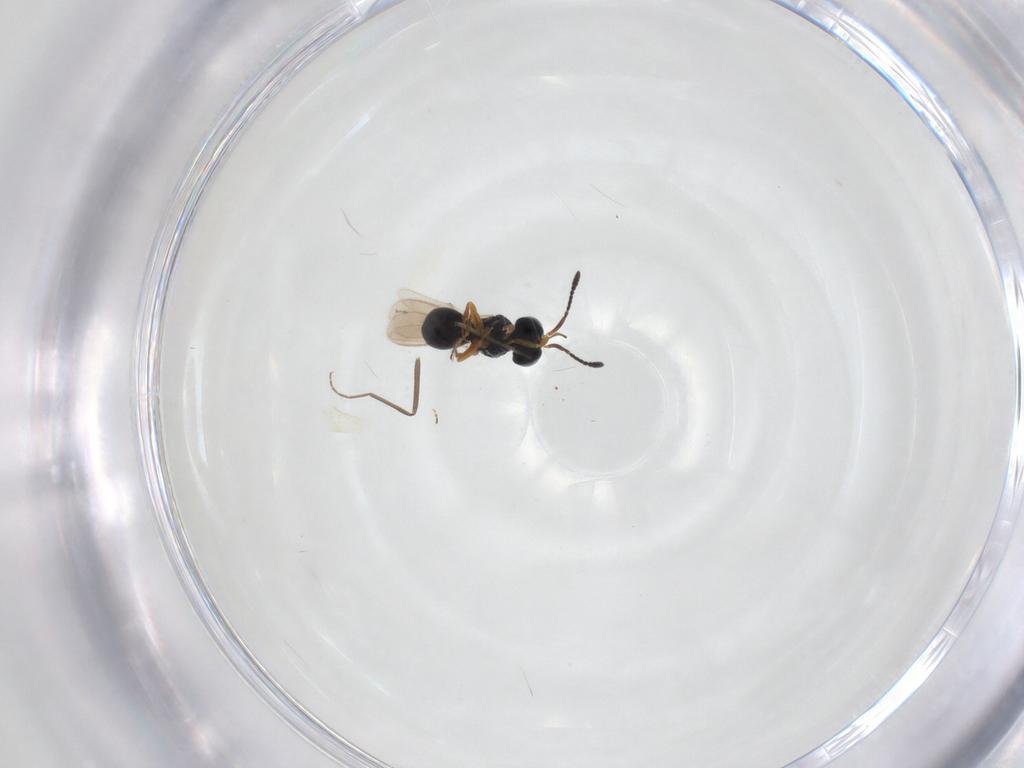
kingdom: Animalia
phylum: Arthropoda
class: Insecta
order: Hymenoptera
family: Scelionidae
